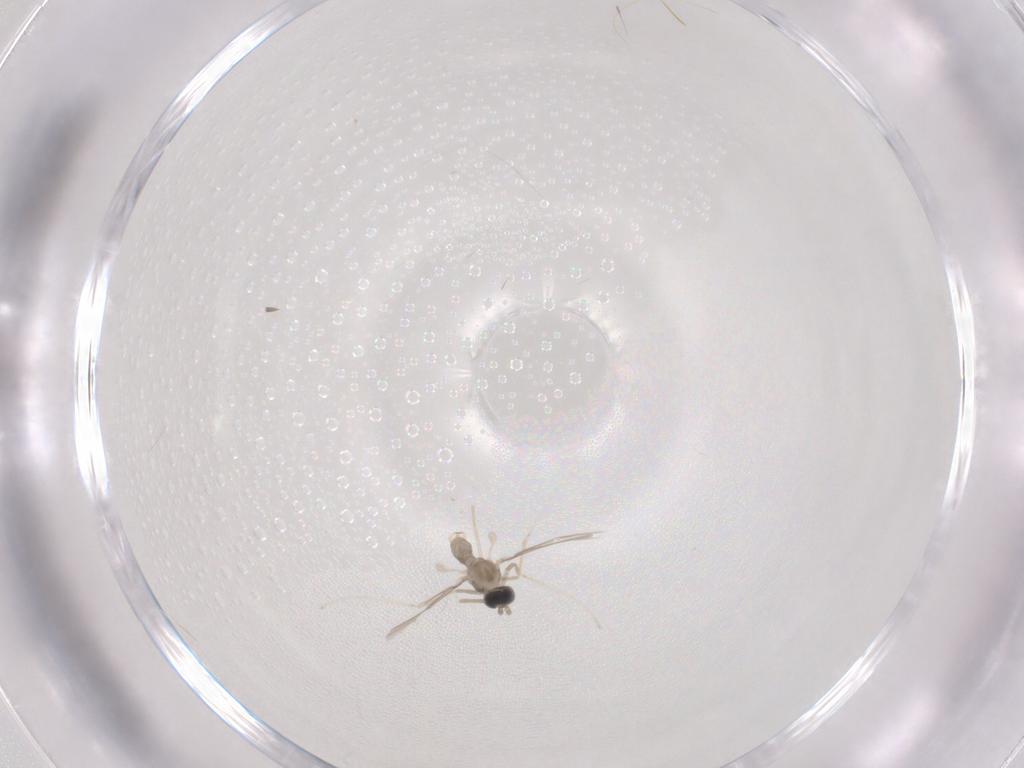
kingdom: Animalia
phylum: Arthropoda
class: Insecta
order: Diptera
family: Cecidomyiidae
